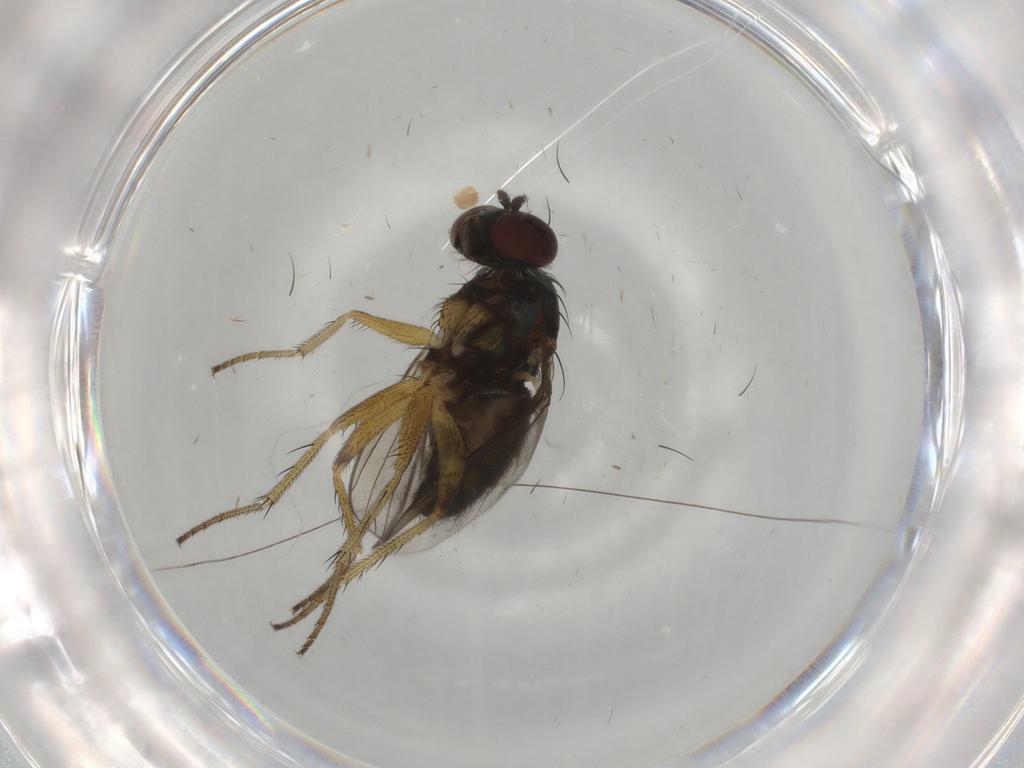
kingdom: Animalia
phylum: Arthropoda
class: Insecta
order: Diptera
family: Dolichopodidae
